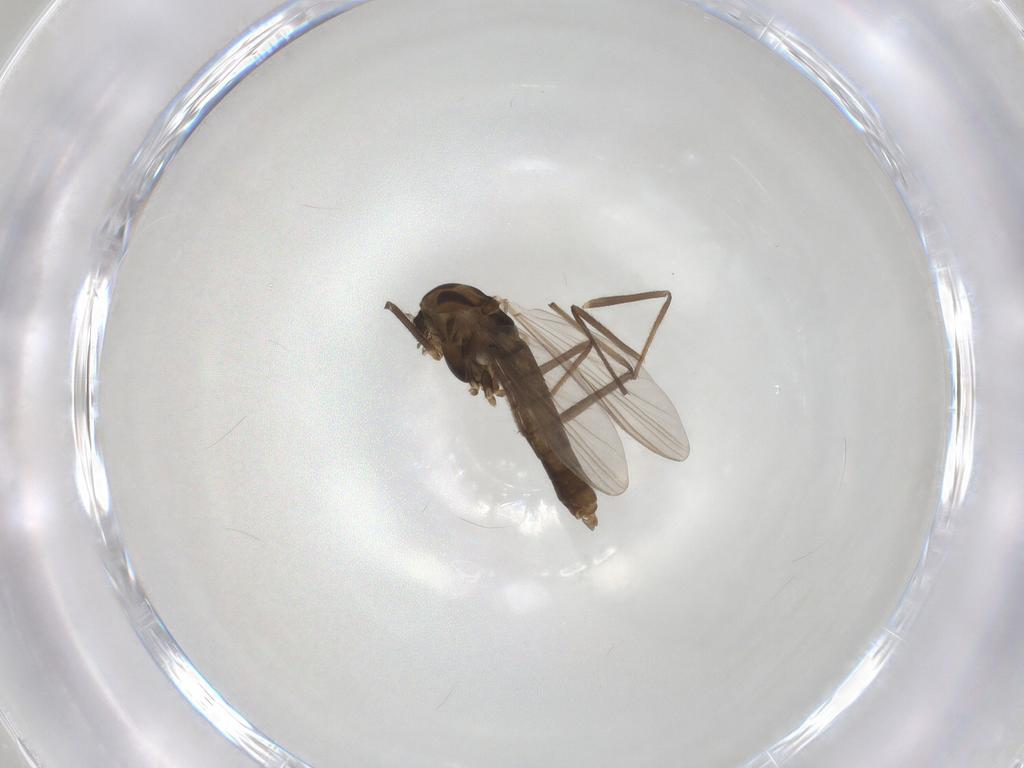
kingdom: Animalia
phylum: Arthropoda
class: Insecta
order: Diptera
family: Chironomidae
